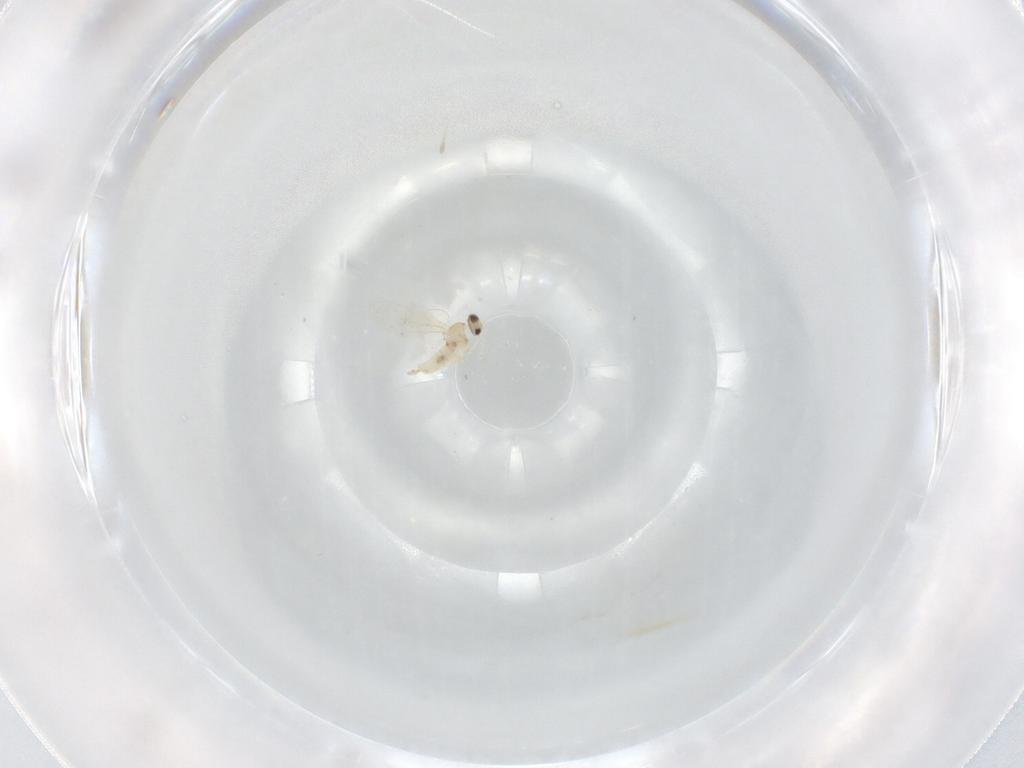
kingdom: Animalia
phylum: Arthropoda
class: Insecta
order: Diptera
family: Cecidomyiidae
